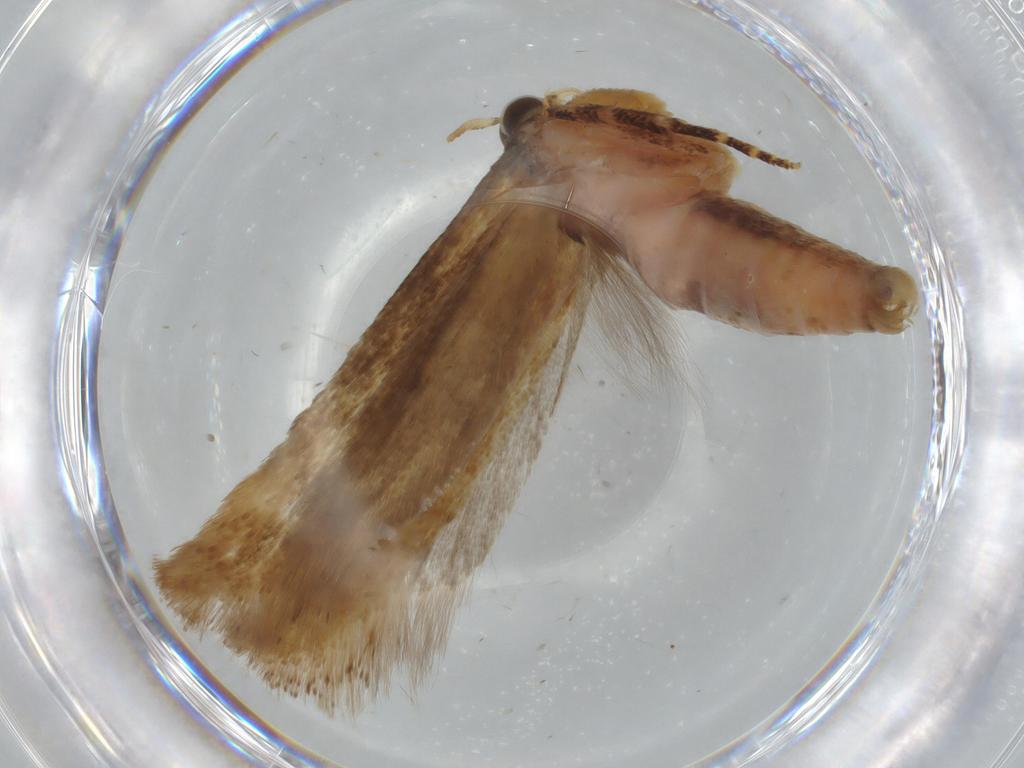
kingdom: Animalia
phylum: Arthropoda
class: Insecta
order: Lepidoptera
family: Gelechiidae
